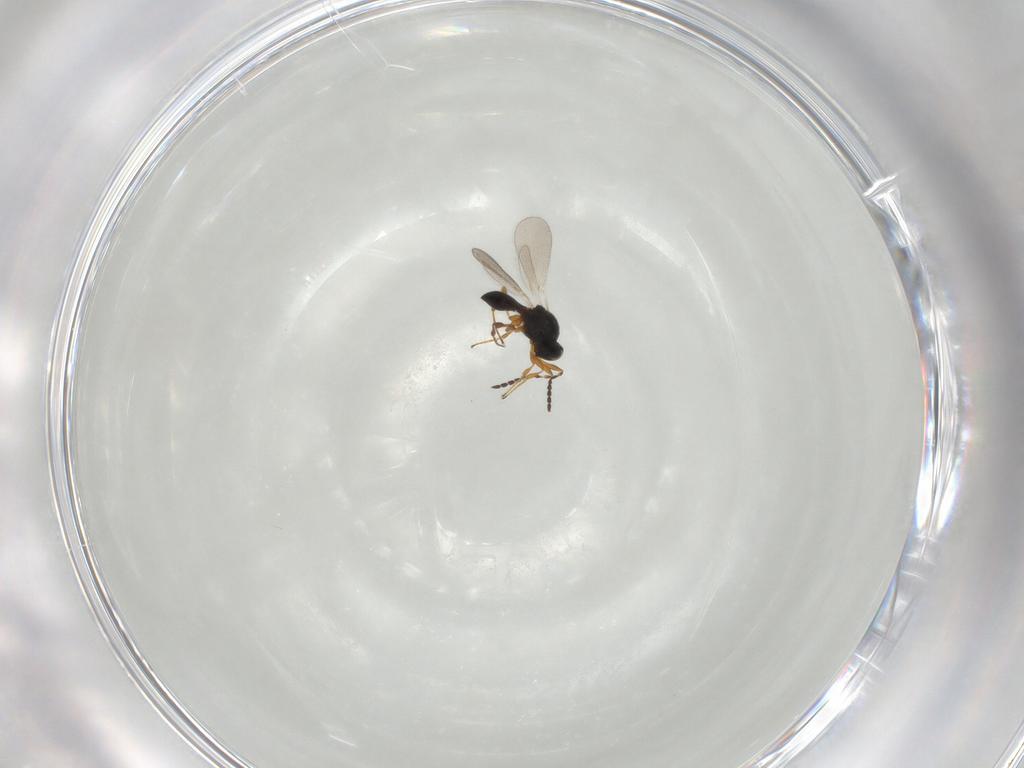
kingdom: Animalia
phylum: Arthropoda
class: Insecta
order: Hymenoptera
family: Platygastridae
